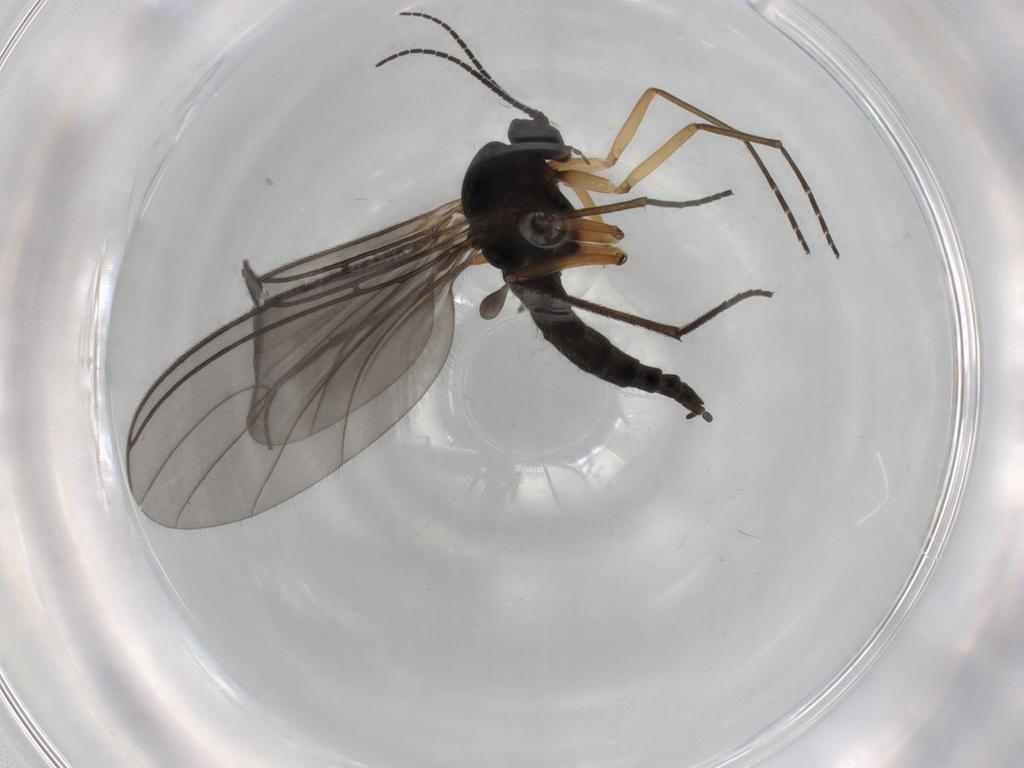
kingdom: Animalia
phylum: Arthropoda
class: Insecta
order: Diptera
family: Sciaridae
